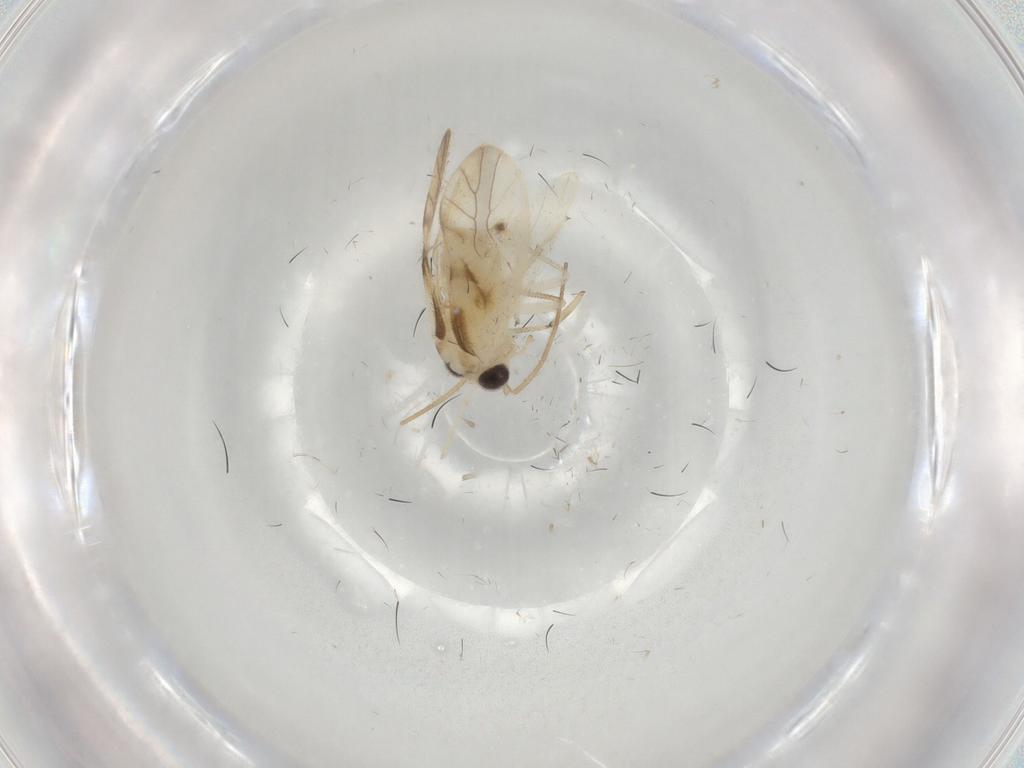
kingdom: Animalia
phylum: Arthropoda
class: Insecta
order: Psocodea
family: Caeciliusidae
